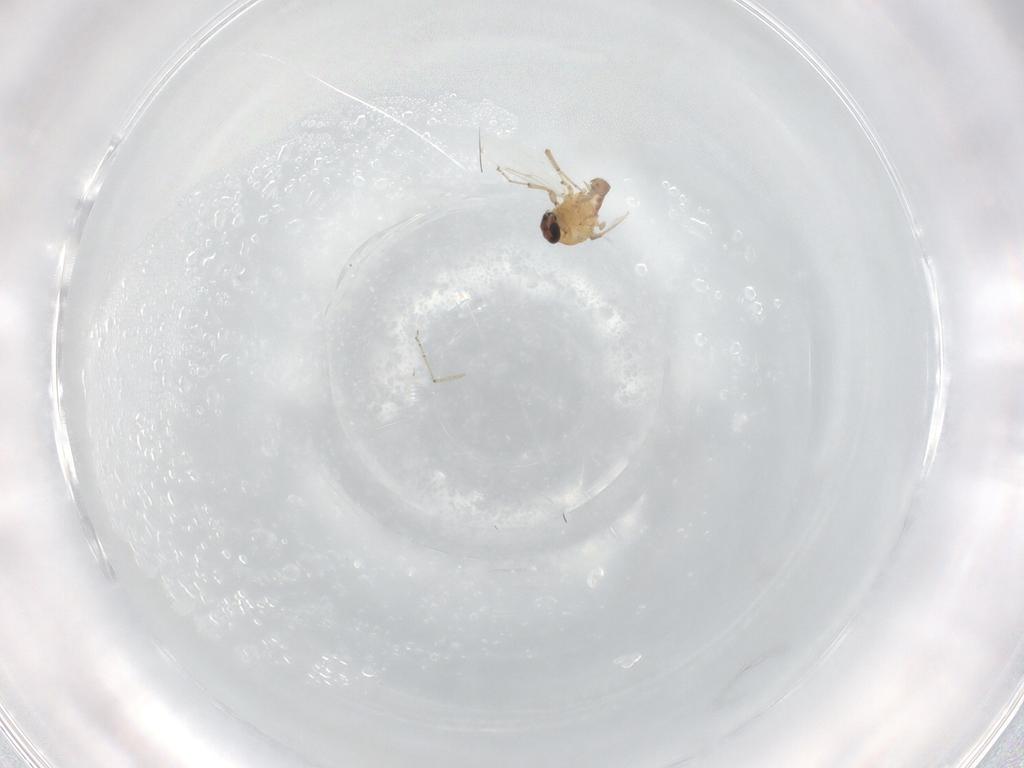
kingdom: Animalia
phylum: Arthropoda
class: Insecta
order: Diptera
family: Ceratopogonidae
